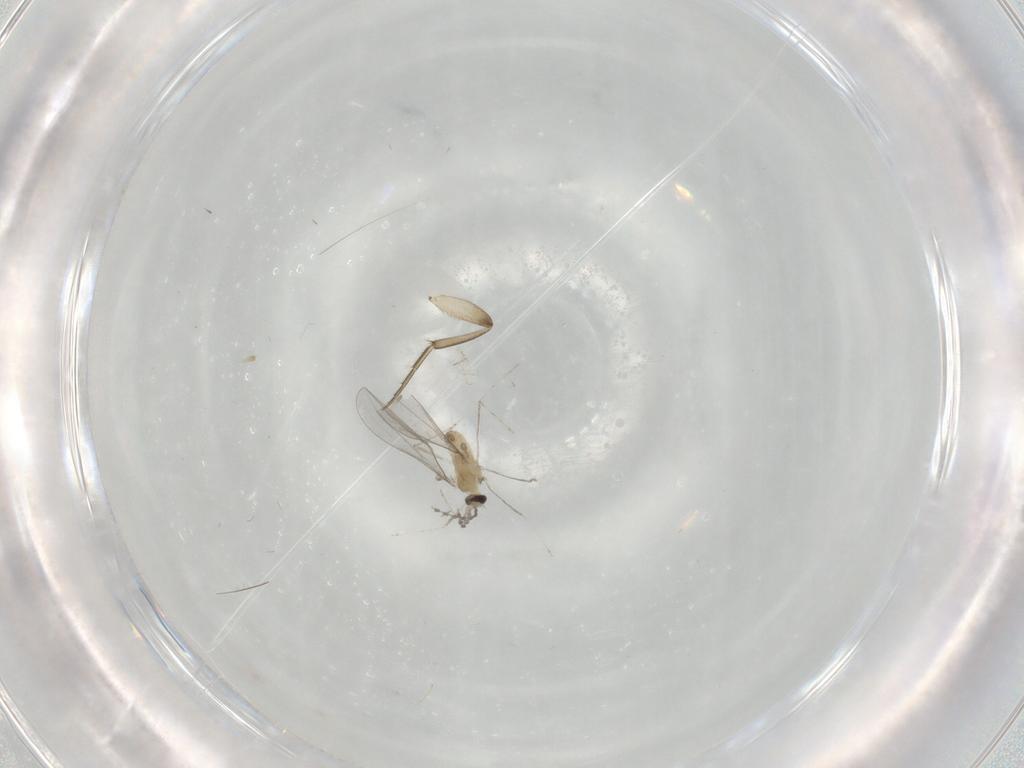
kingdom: Animalia
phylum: Arthropoda
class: Insecta
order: Diptera
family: Cecidomyiidae
